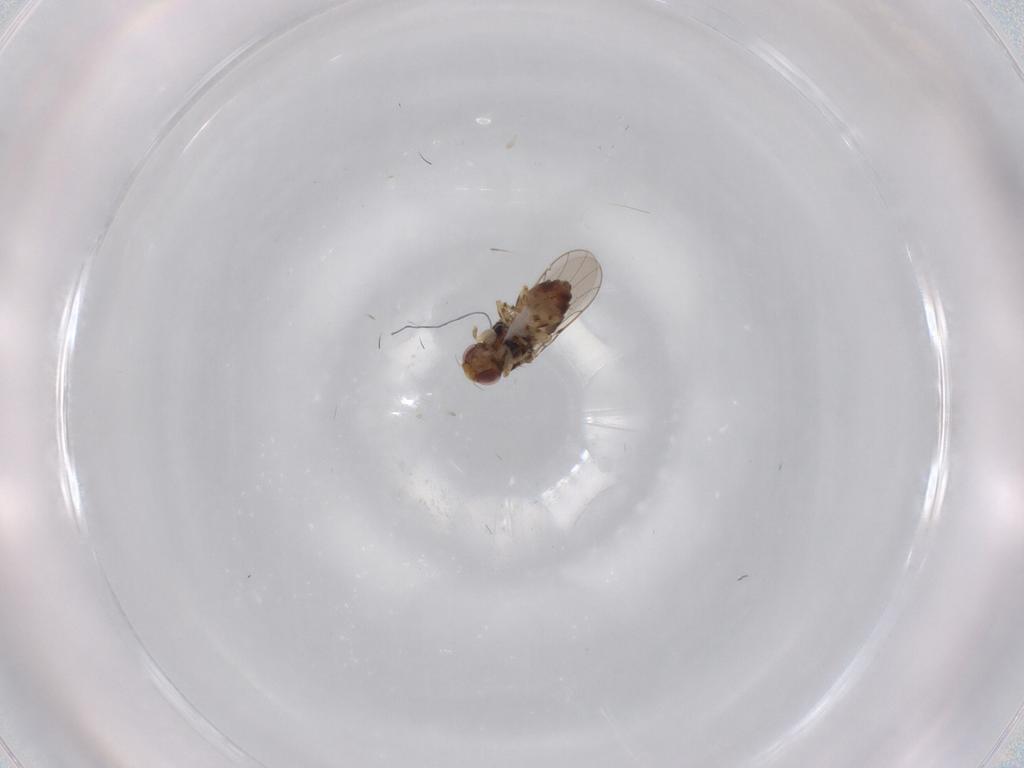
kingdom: Animalia
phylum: Arthropoda
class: Insecta
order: Diptera
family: Chloropidae
